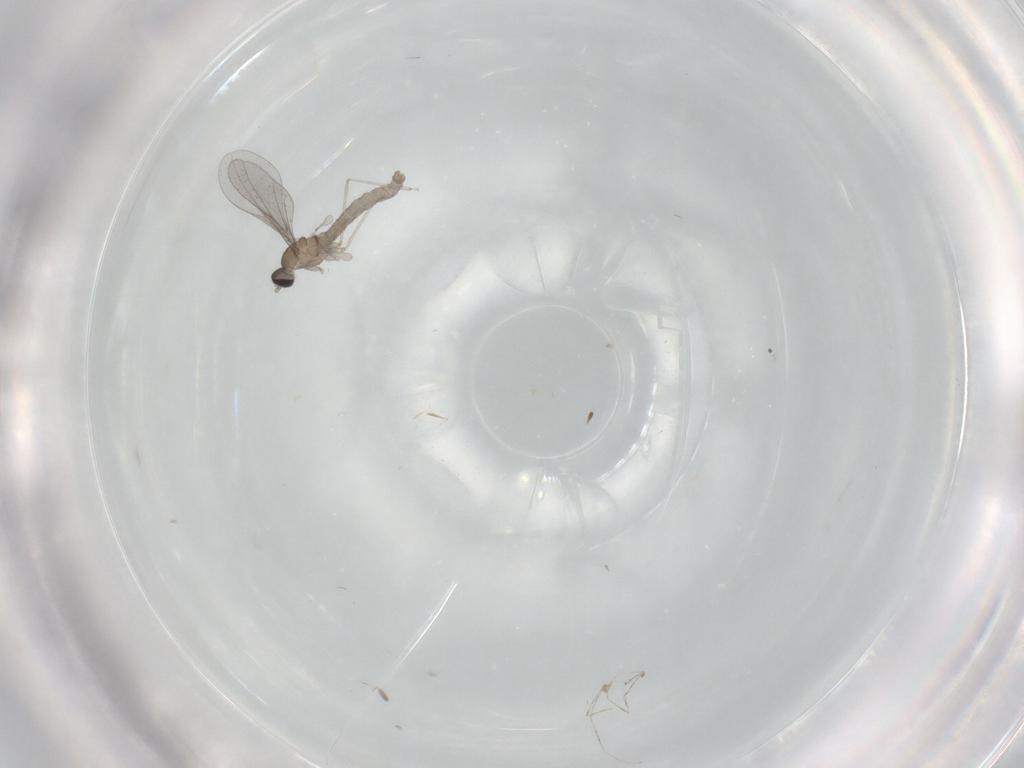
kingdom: Animalia
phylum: Arthropoda
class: Insecta
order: Diptera
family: Cecidomyiidae
